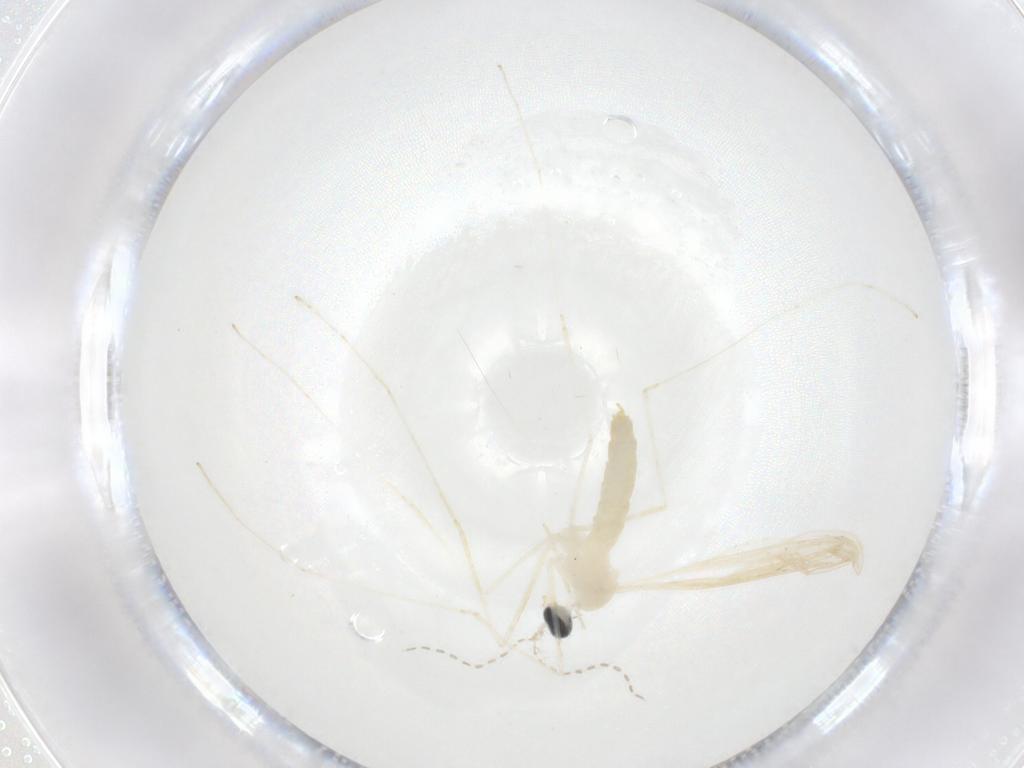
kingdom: Animalia
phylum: Arthropoda
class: Insecta
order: Diptera
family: Cecidomyiidae
